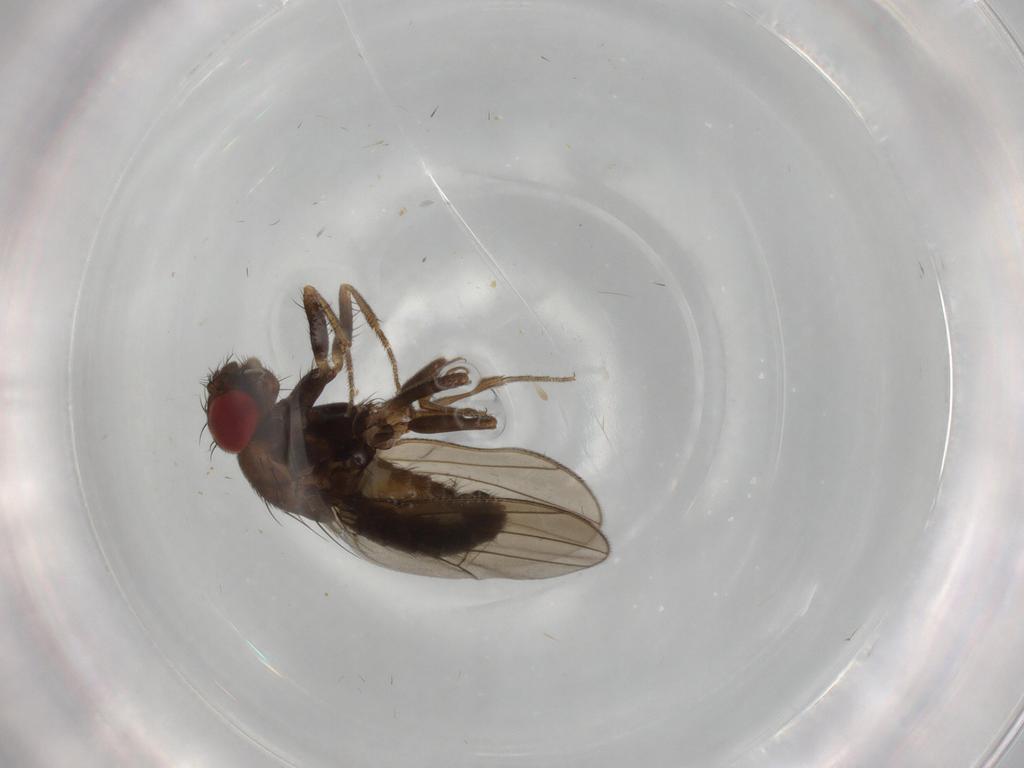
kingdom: Animalia
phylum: Arthropoda
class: Insecta
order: Diptera
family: Drosophilidae
